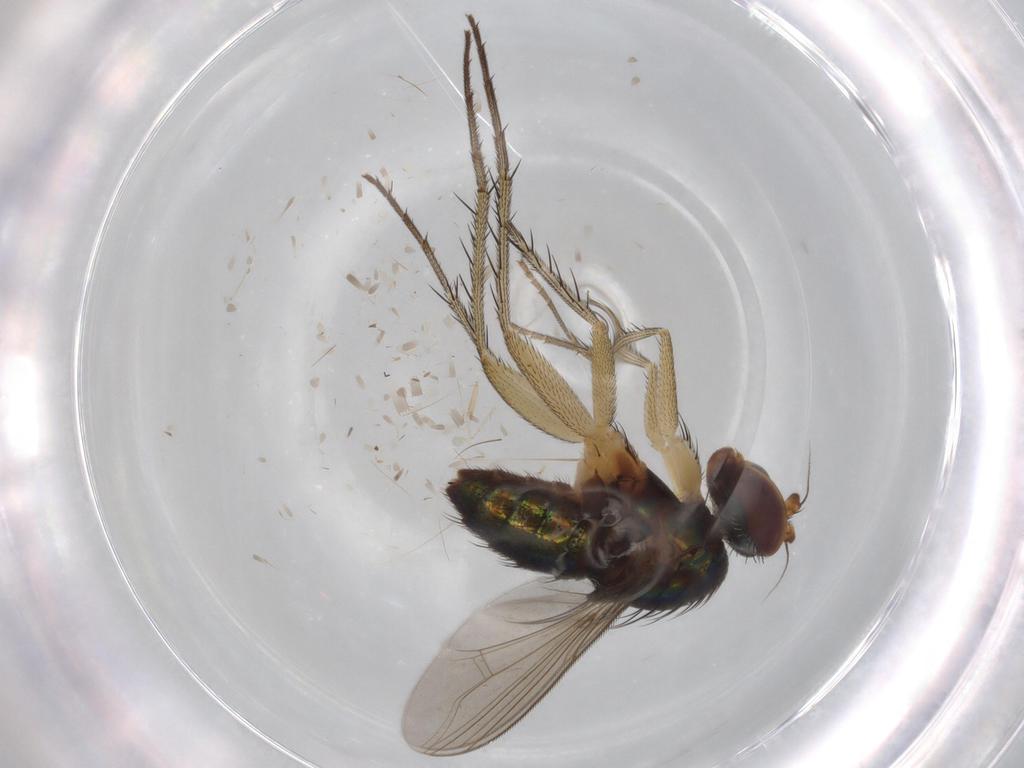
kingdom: Animalia
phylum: Arthropoda
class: Insecta
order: Diptera
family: Dolichopodidae
